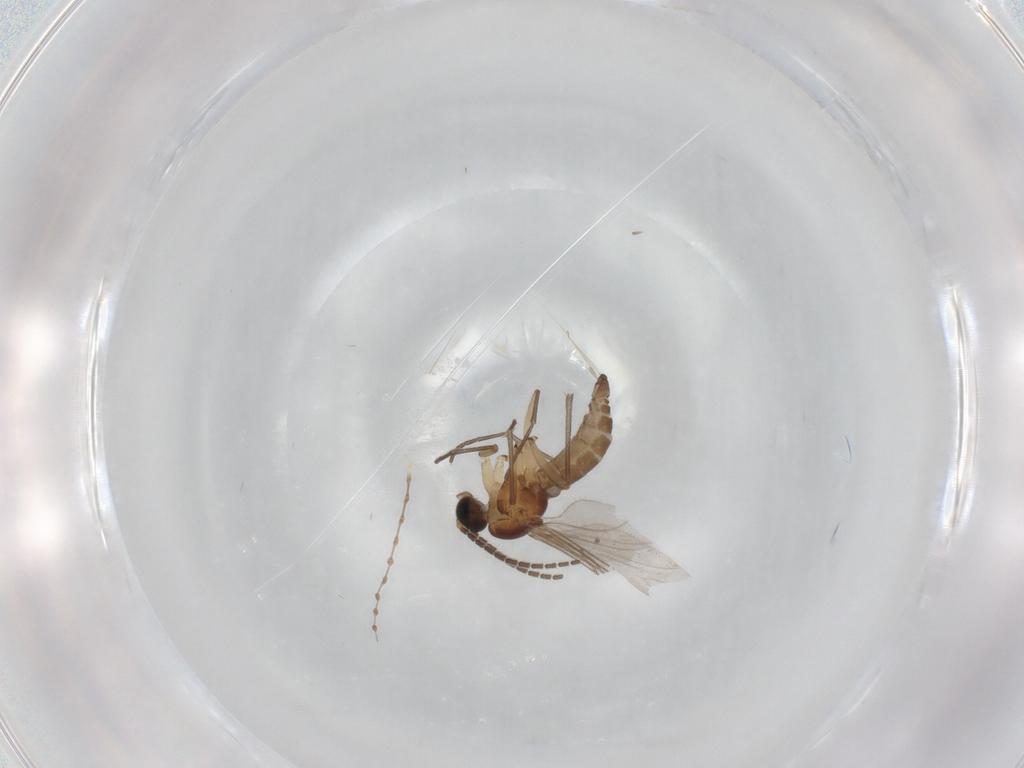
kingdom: Animalia
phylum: Arthropoda
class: Insecta
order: Diptera
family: Sciaridae
